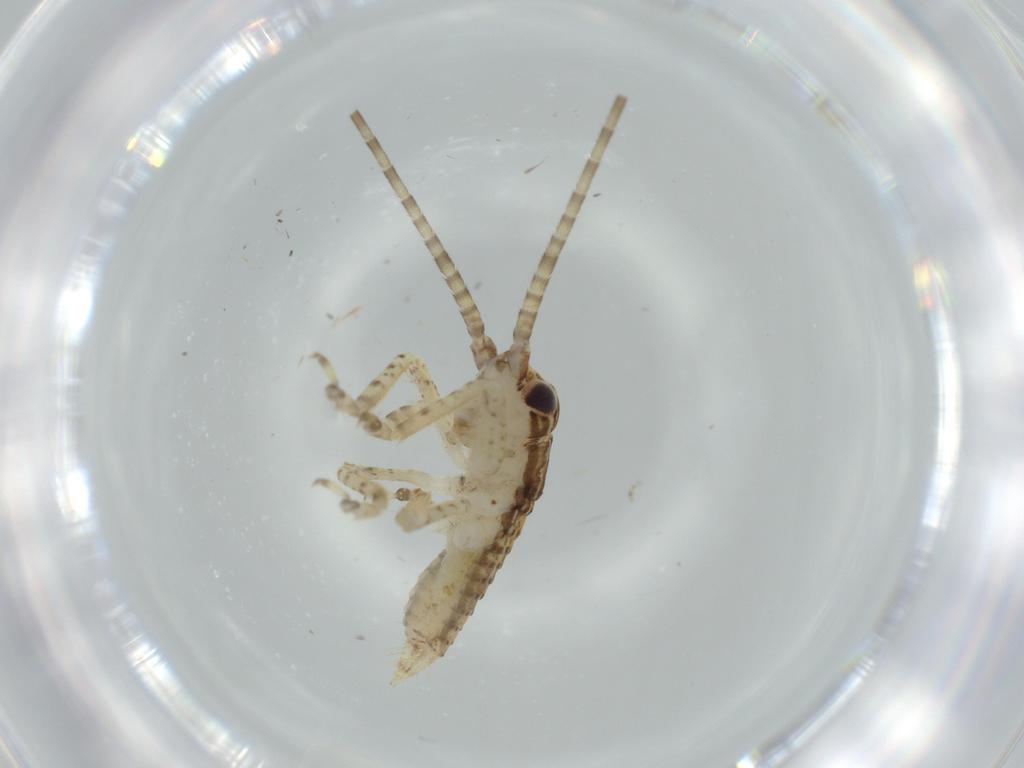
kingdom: Animalia
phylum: Arthropoda
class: Insecta
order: Orthoptera
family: Gryllidae
